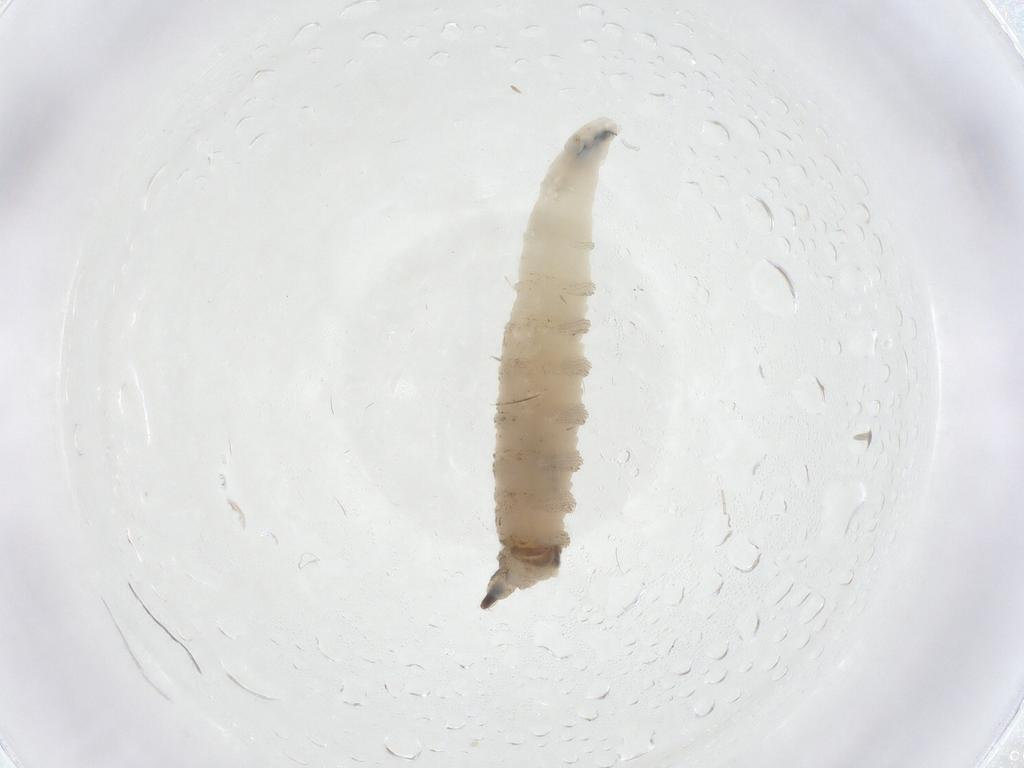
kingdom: Animalia
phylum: Arthropoda
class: Insecta
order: Diptera
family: Drosophilidae
